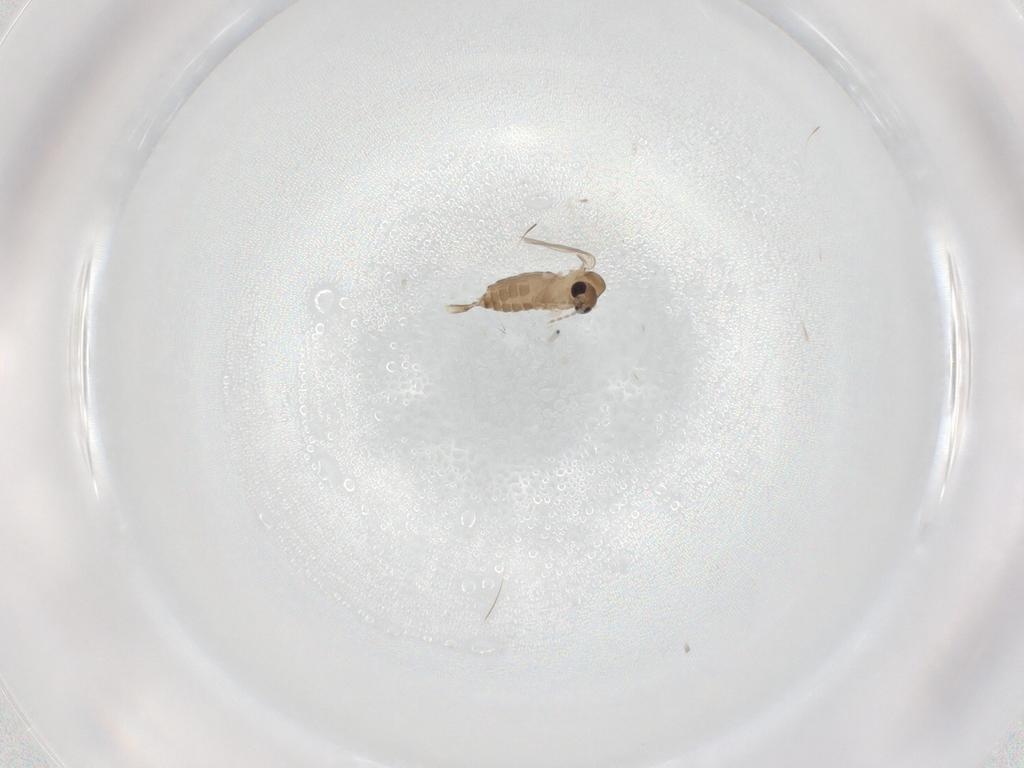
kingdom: Animalia
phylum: Arthropoda
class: Insecta
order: Diptera
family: Psychodidae
